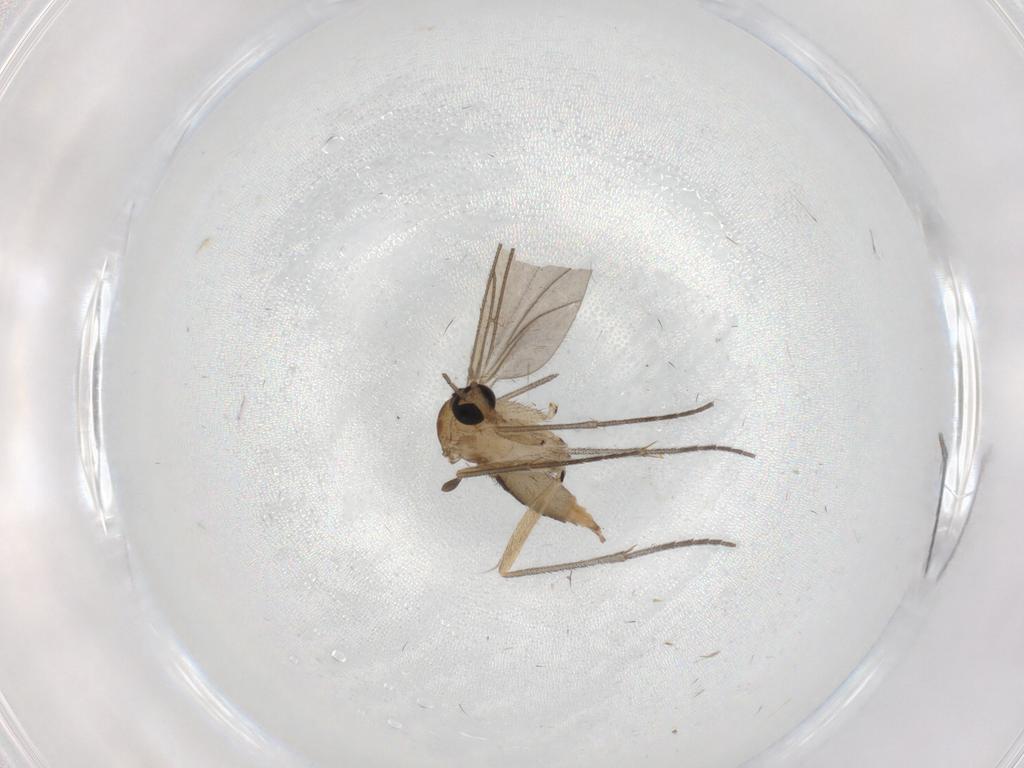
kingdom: Animalia
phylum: Arthropoda
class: Insecta
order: Diptera
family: Sciaridae
